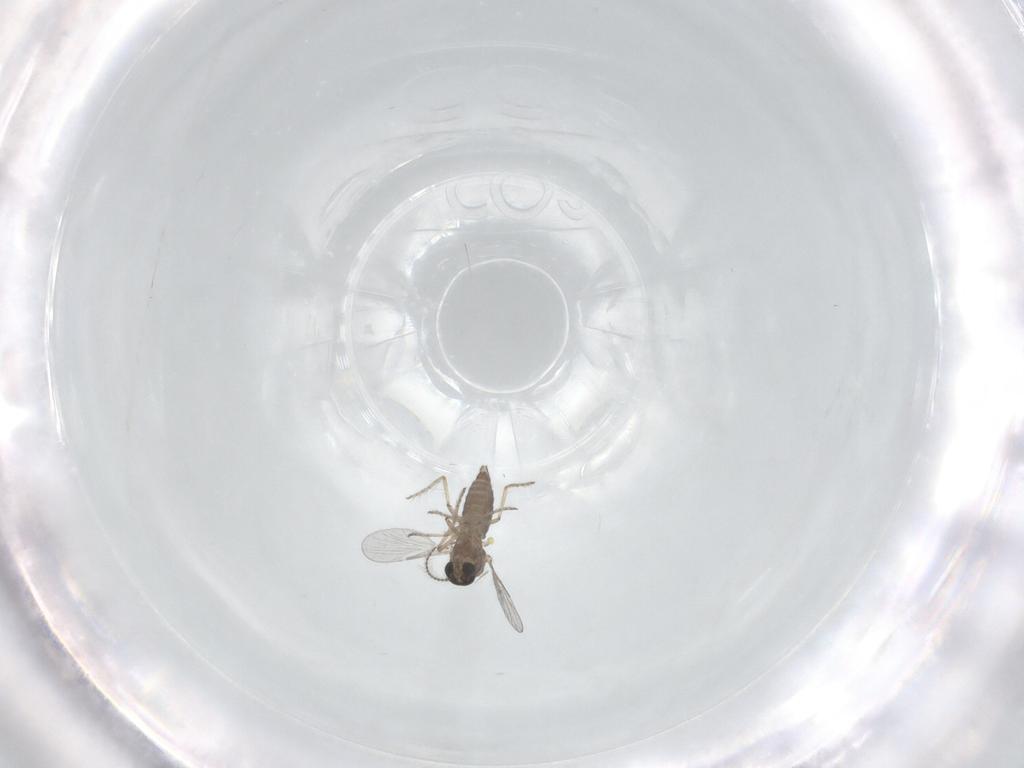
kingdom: Animalia
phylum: Arthropoda
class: Insecta
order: Diptera
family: Ceratopogonidae
